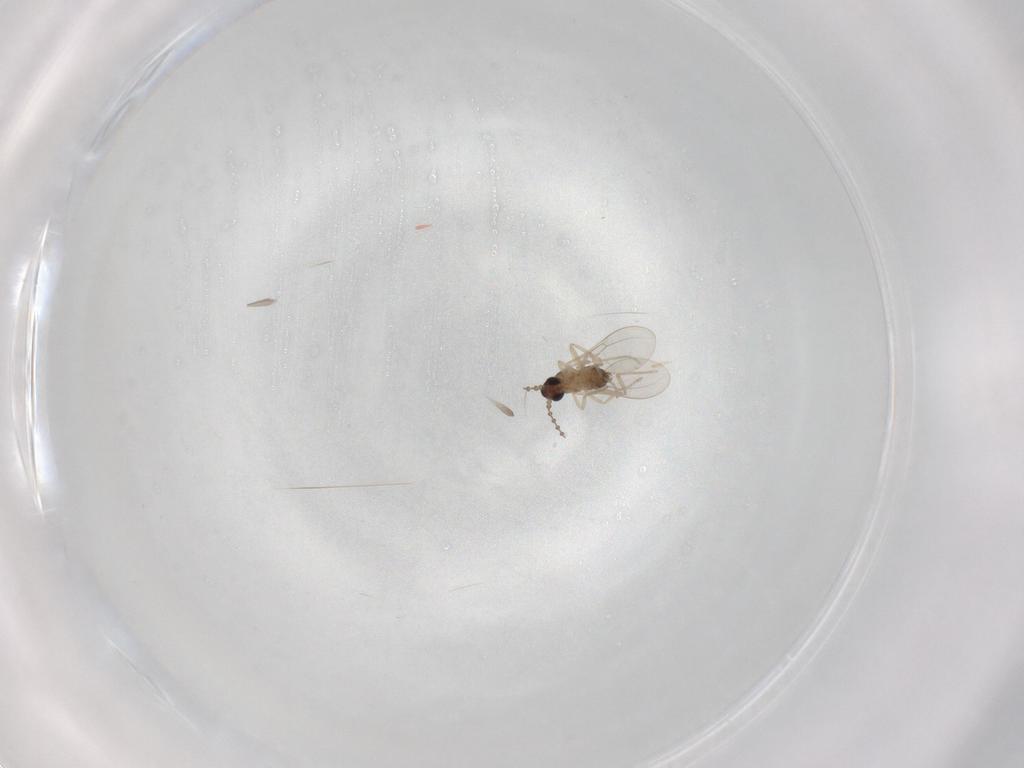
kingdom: Animalia
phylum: Arthropoda
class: Insecta
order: Diptera
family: Cecidomyiidae
